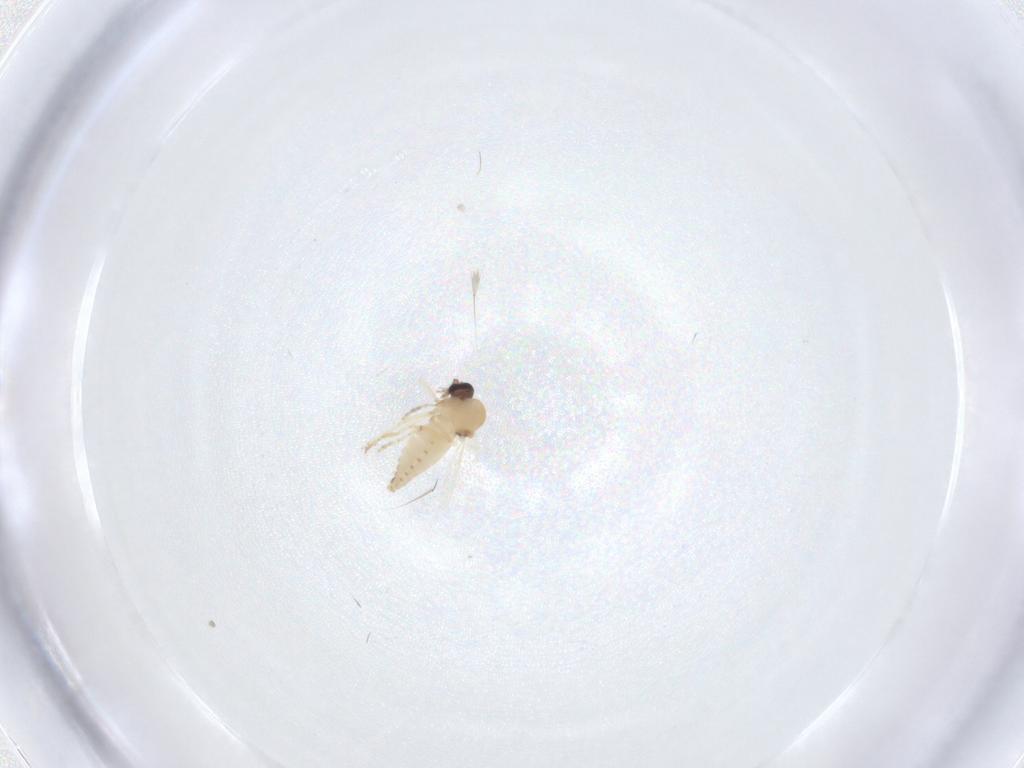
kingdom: Animalia
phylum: Arthropoda
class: Insecta
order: Diptera
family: Ceratopogonidae
